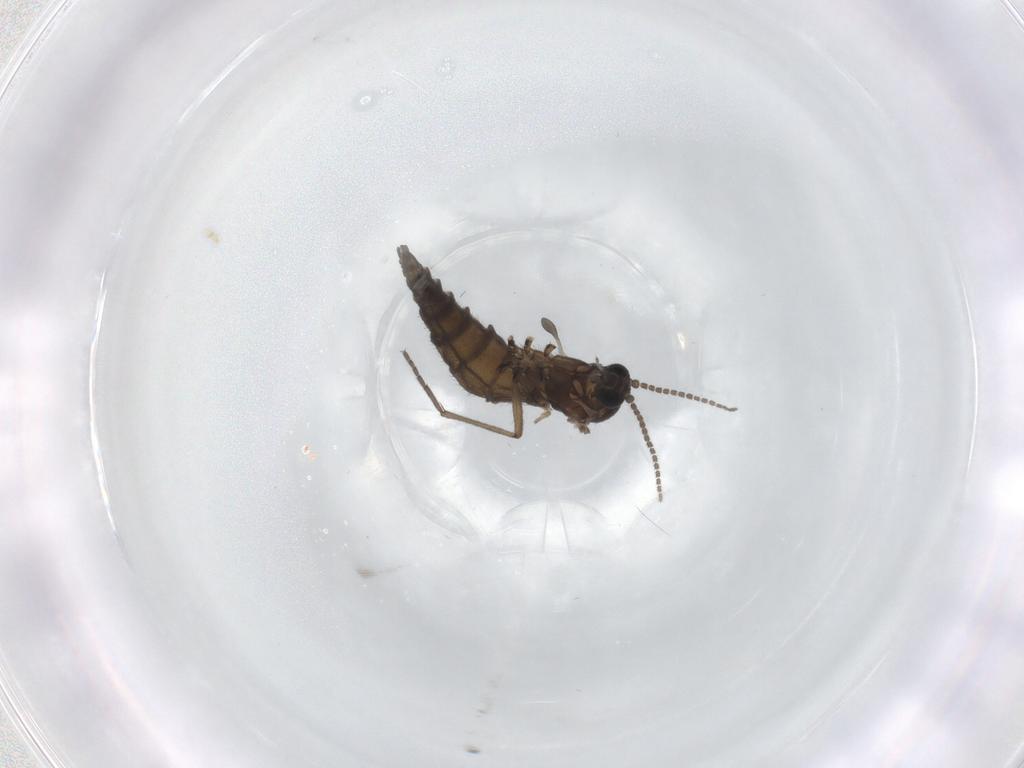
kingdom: Animalia
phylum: Arthropoda
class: Insecta
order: Diptera
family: Sciaridae
